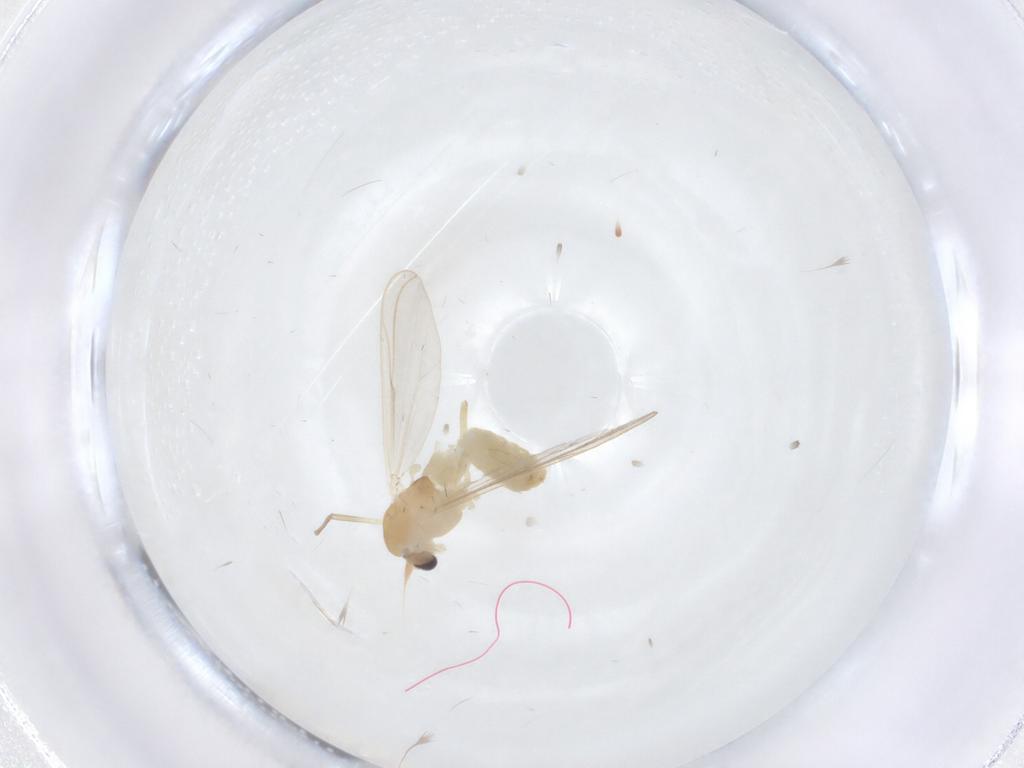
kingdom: Animalia
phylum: Arthropoda
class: Insecta
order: Diptera
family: Chironomidae
